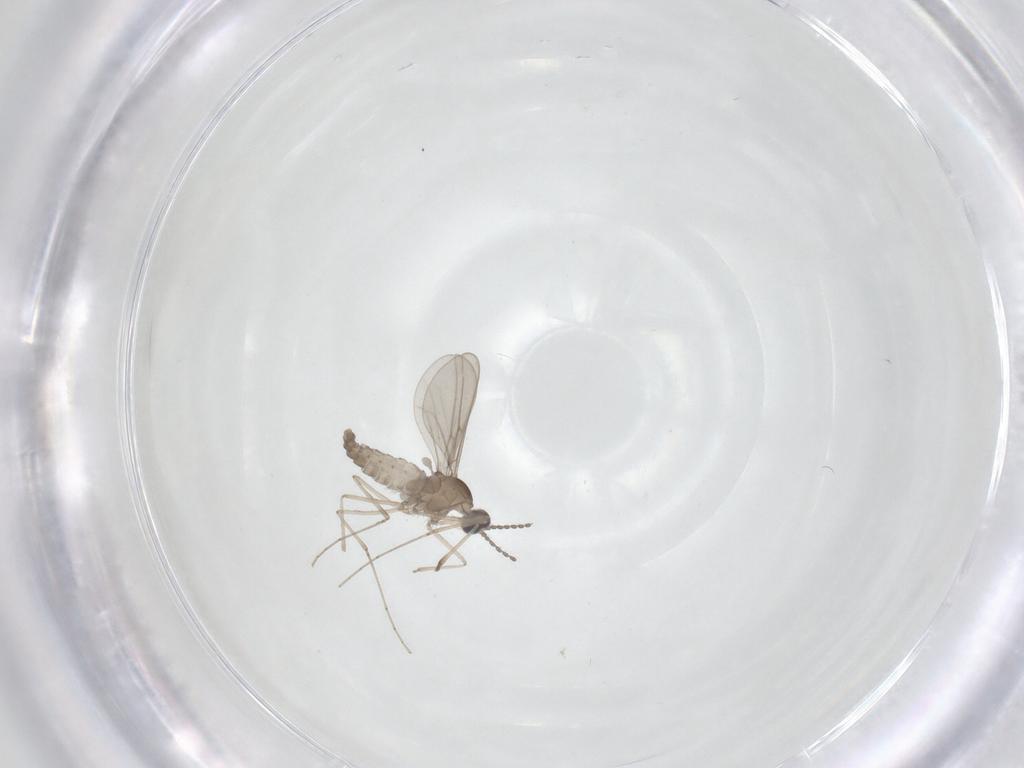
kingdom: Animalia
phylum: Arthropoda
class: Insecta
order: Diptera
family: Cecidomyiidae
